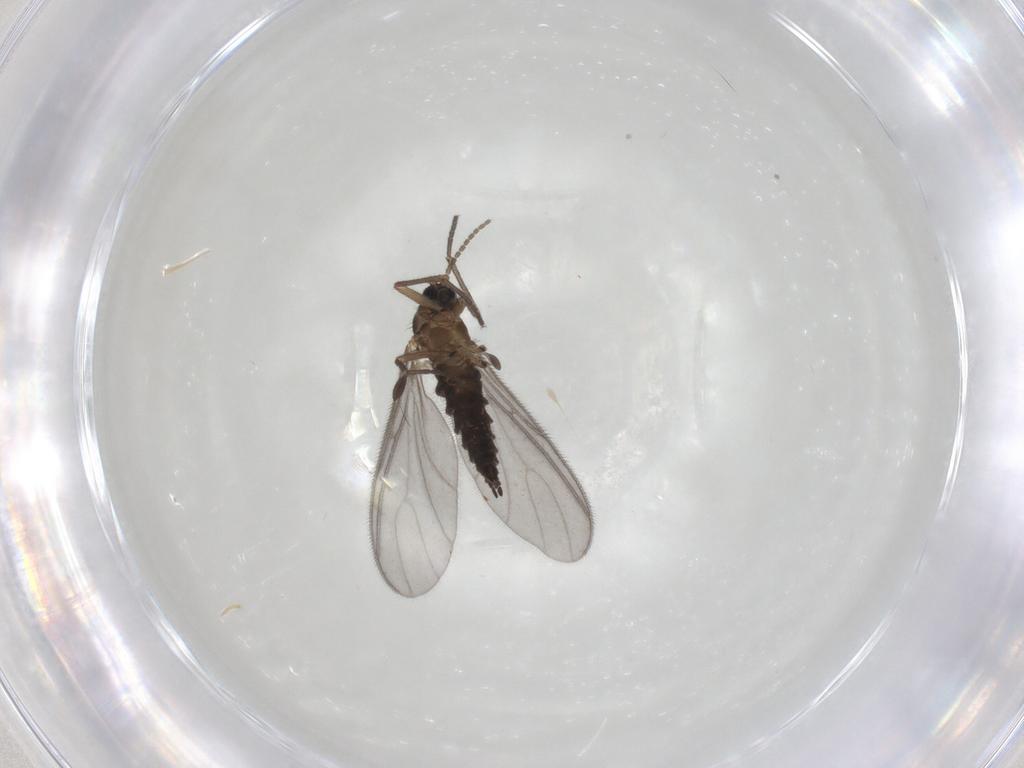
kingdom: Animalia
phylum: Arthropoda
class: Insecta
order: Diptera
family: Sciaridae
